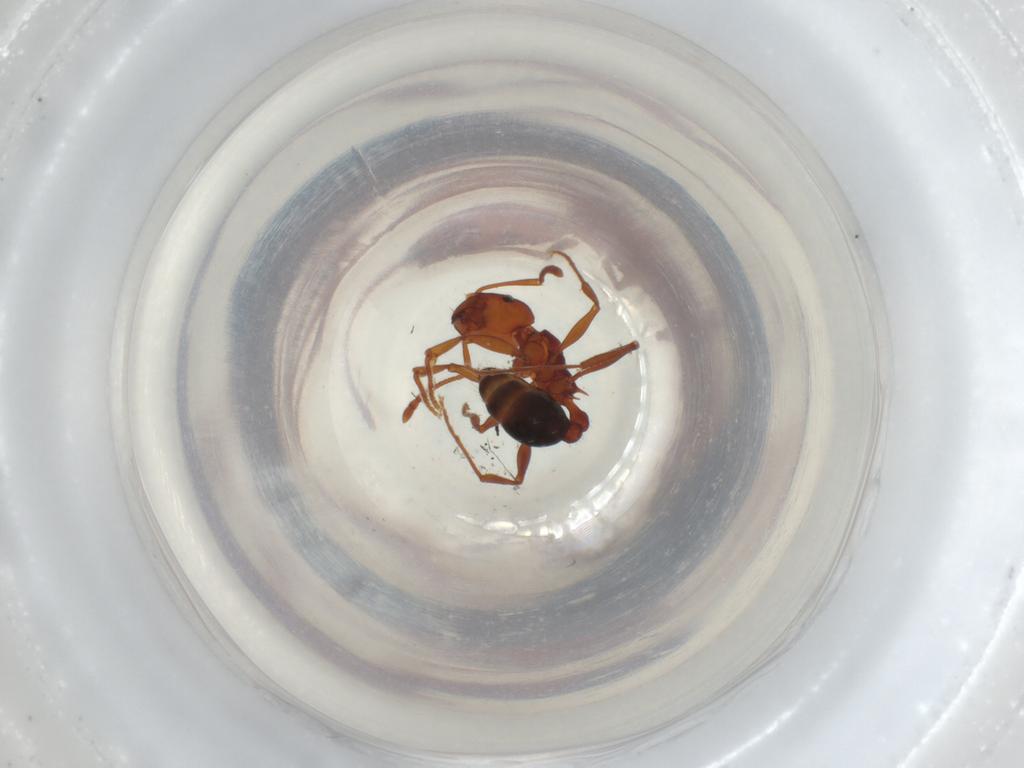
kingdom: Animalia
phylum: Arthropoda
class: Insecta
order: Hymenoptera
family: Formicidae
